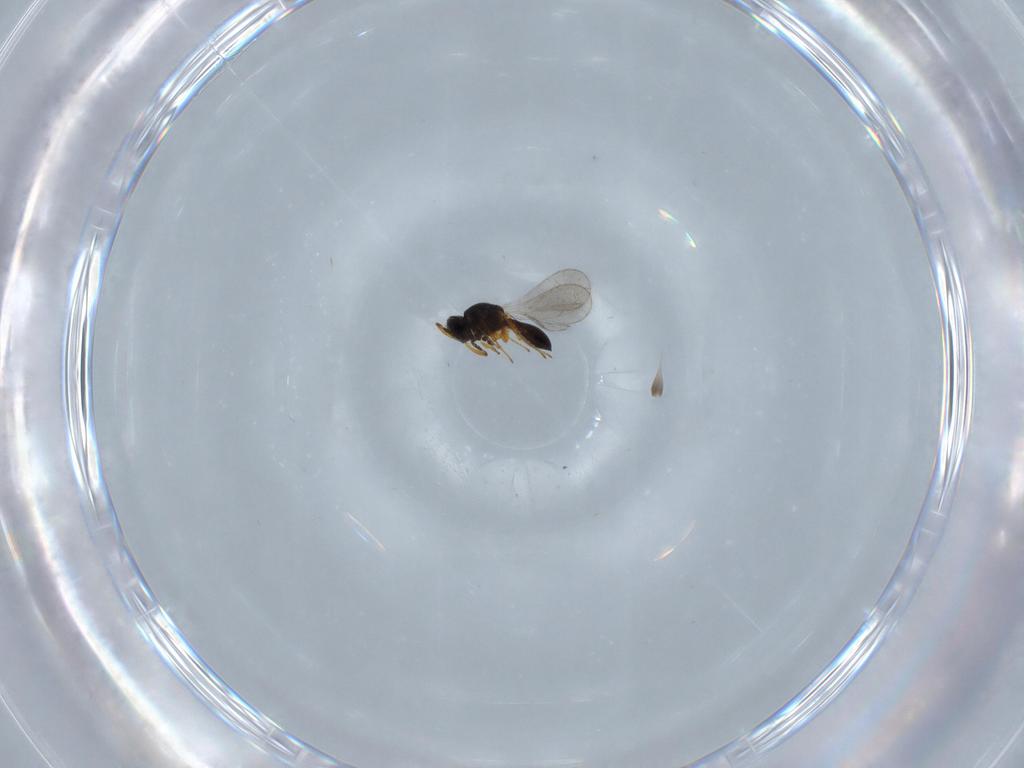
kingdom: Animalia
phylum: Arthropoda
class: Insecta
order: Hymenoptera
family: Platygastridae
